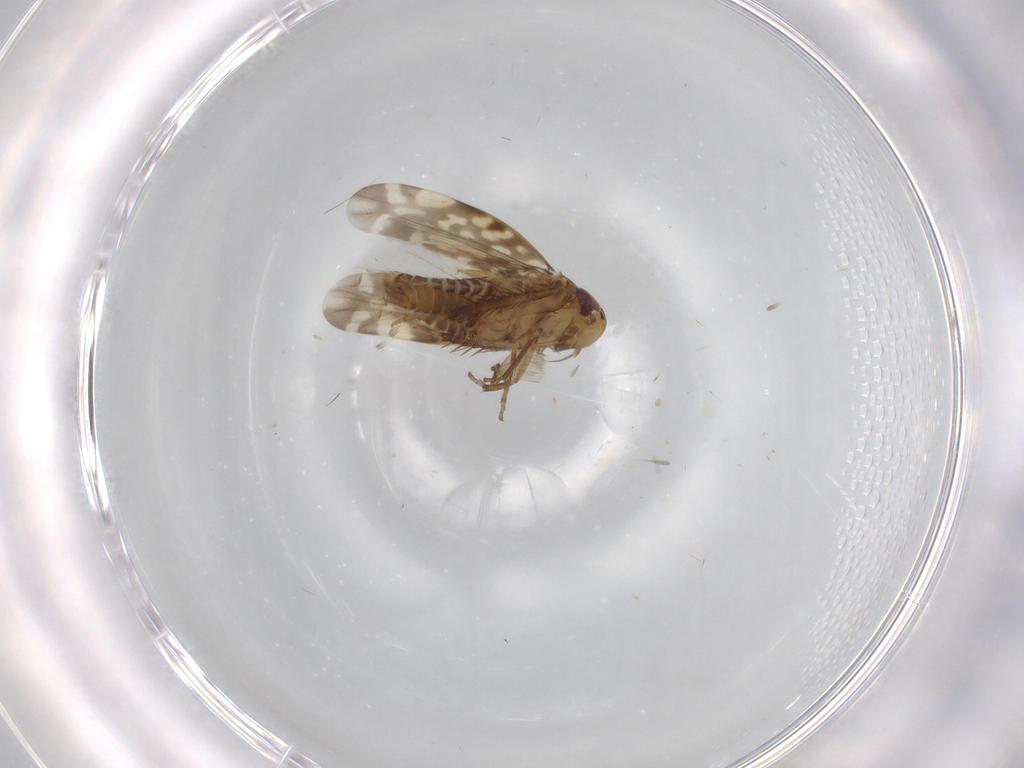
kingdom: Animalia
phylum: Arthropoda
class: Insecta
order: Hemiptera
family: Cicadellidae
